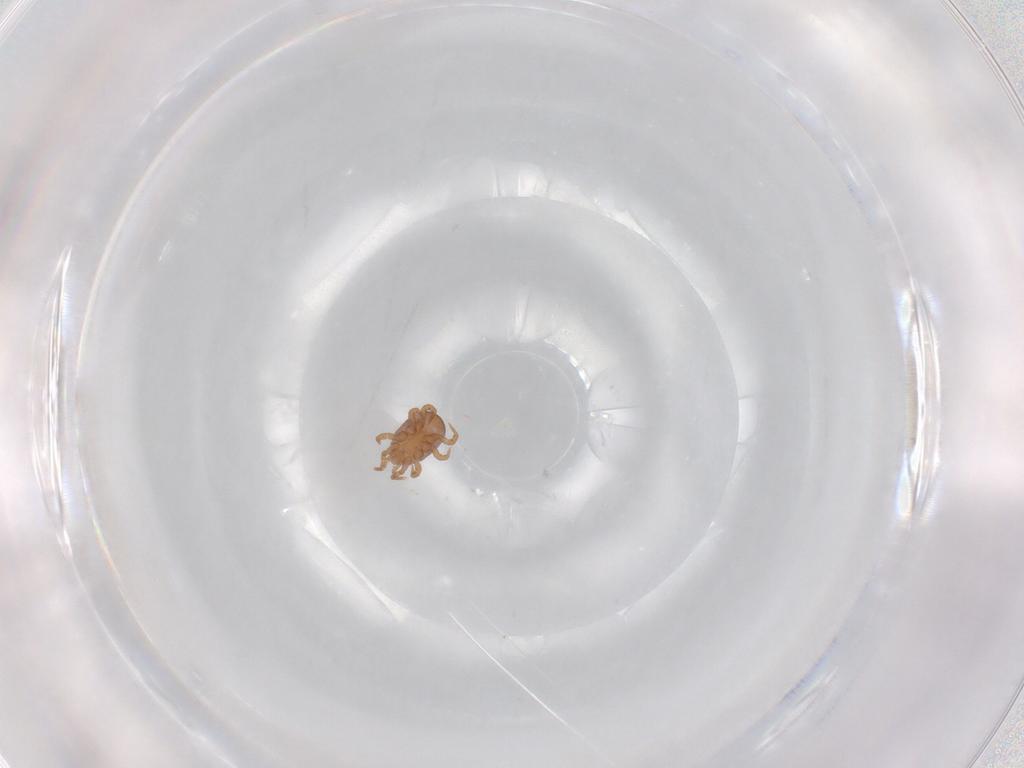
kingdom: Animalia
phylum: Arthropoda
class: Arachnida
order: Mesostigmata
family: Eviphididae
